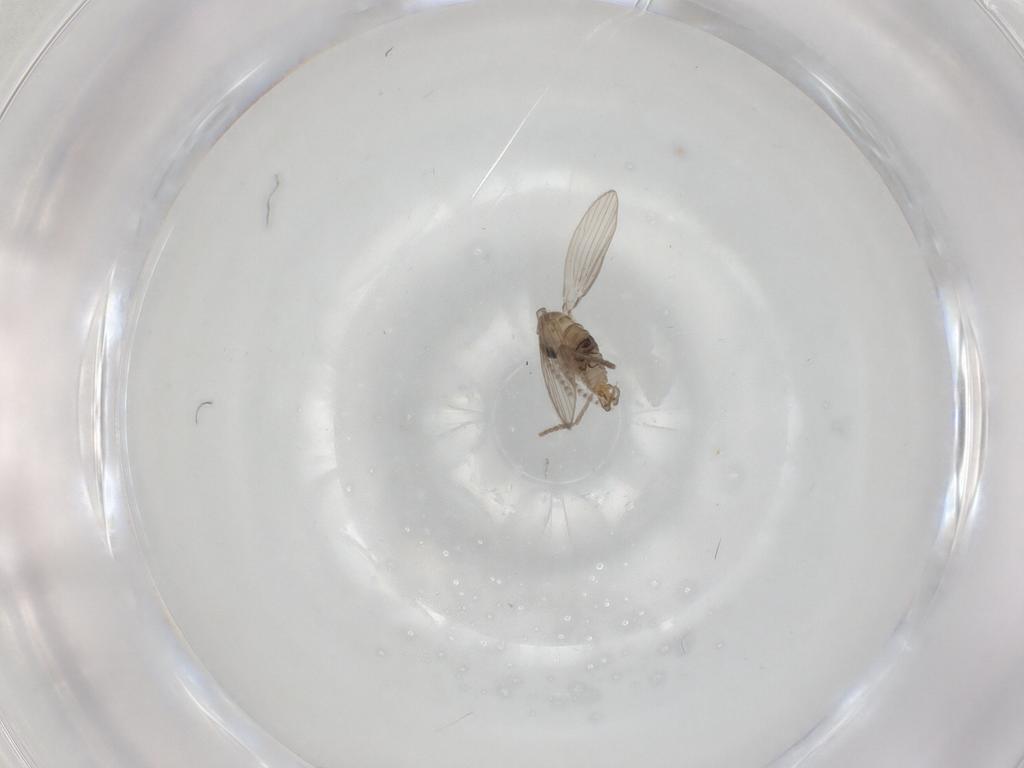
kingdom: Animalia
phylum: Arthropoda
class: Insecta
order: Diptera
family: Psychodidae
